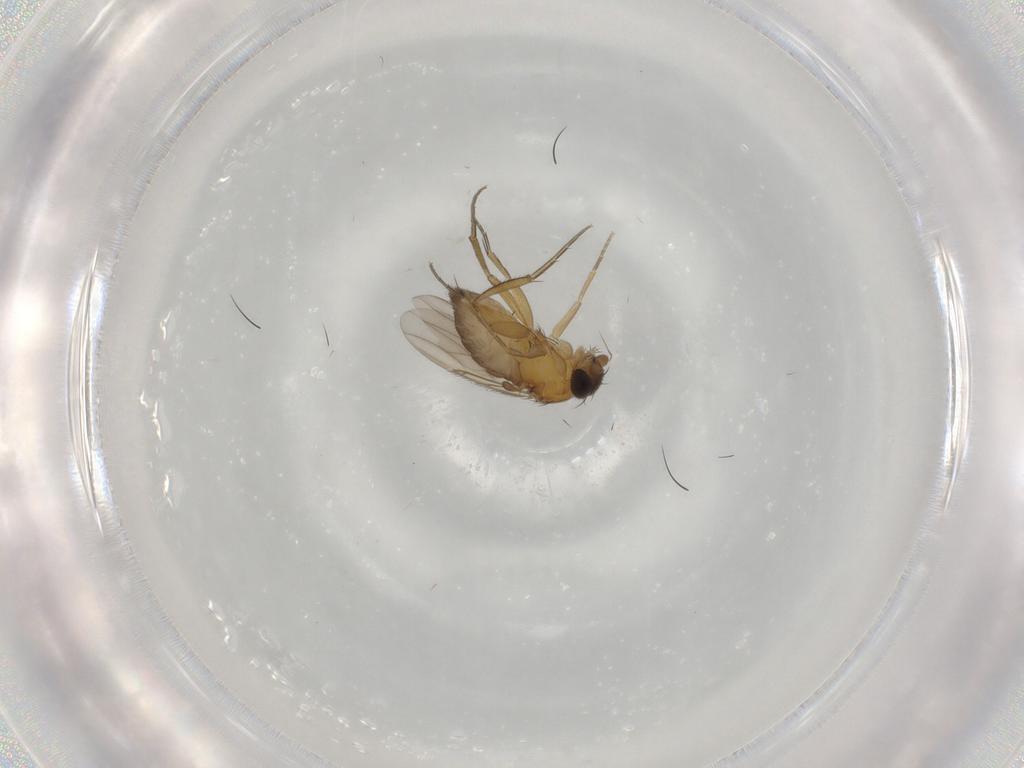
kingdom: Animalia
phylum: Arthropoda
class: Insecta
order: Diptera
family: Phoridae
